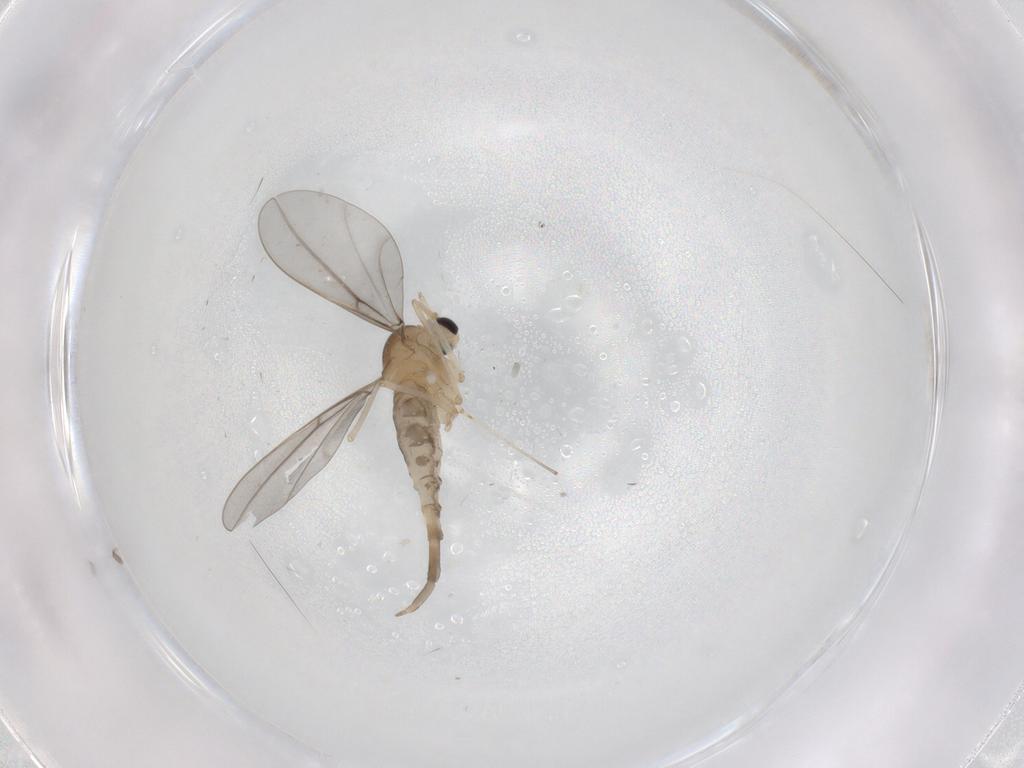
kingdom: Animalia
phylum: Arthropoda
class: Insecta
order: Diptera
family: Cecidomyiidae
